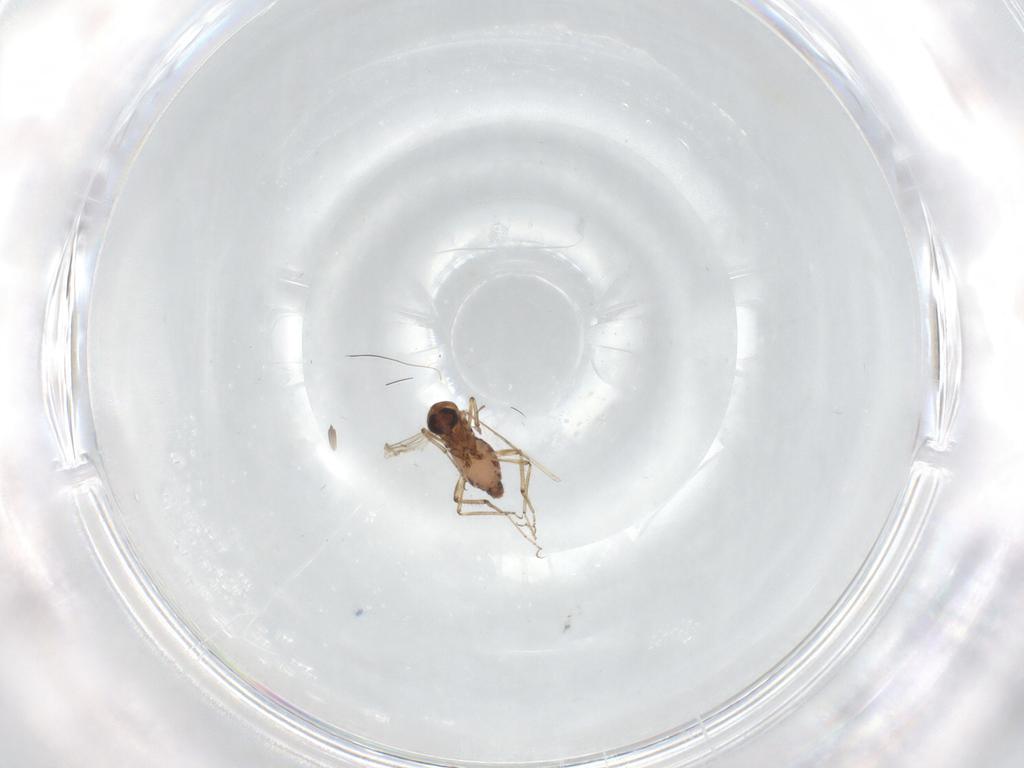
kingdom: Animalia
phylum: Arthropoda
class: Insecta
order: Diptera
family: Ceratopogonidae
